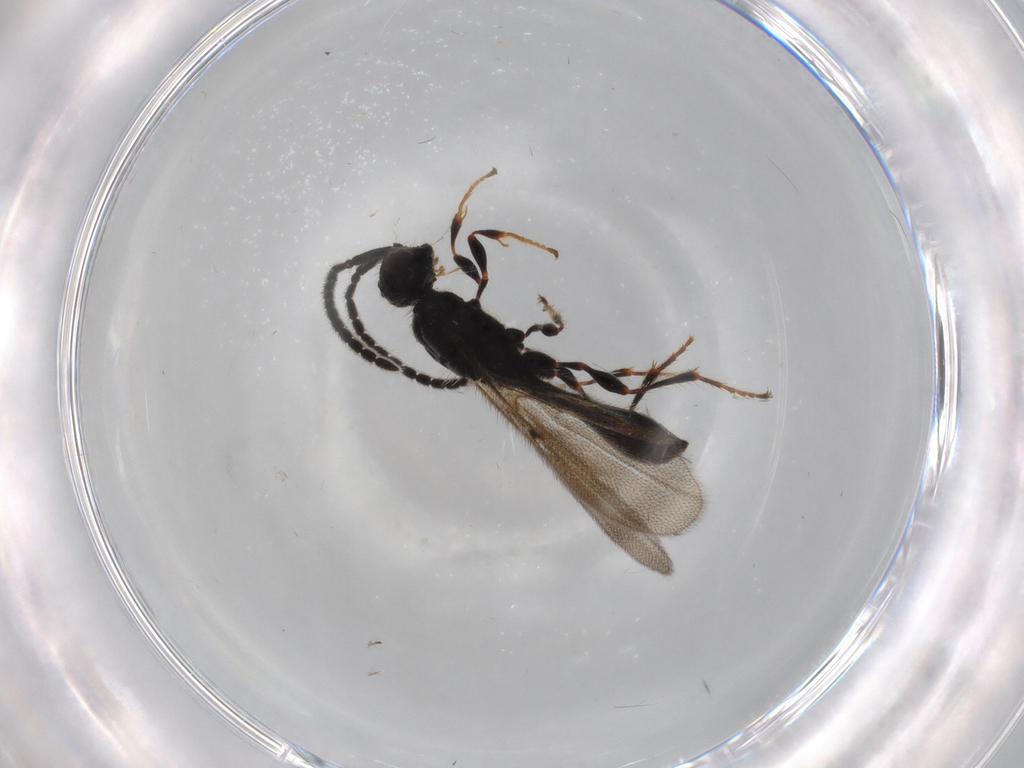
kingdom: Animalia
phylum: Arthropoda
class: Insecta
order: Hymenoptera
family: Diapriidae
